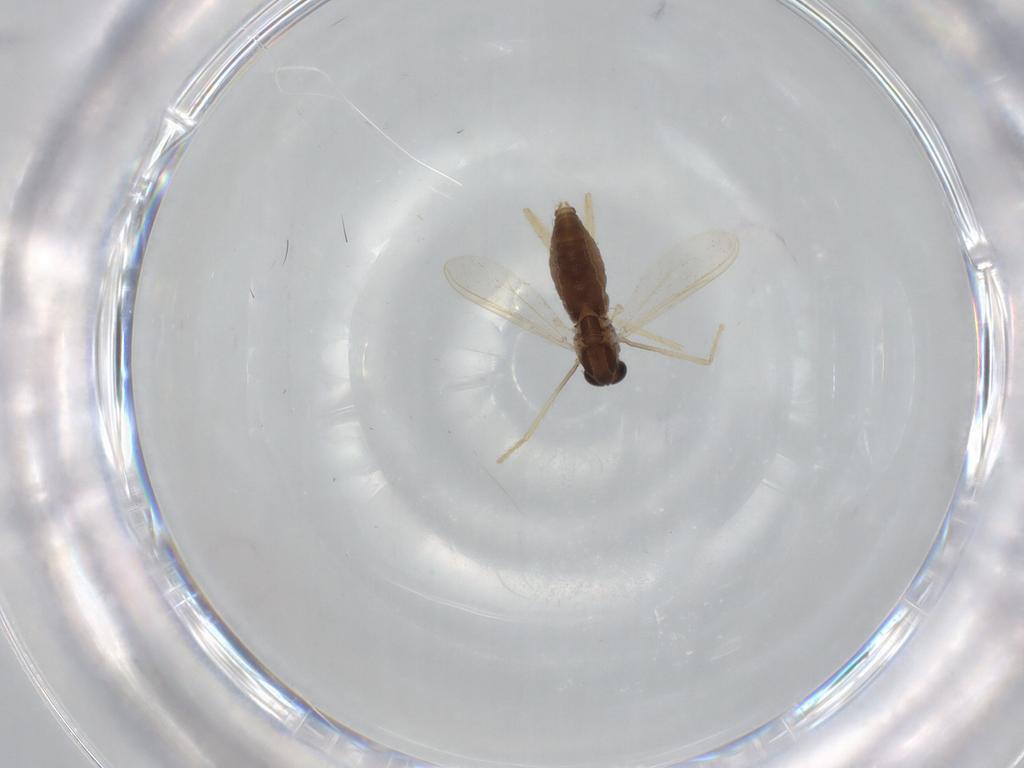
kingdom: Animalia
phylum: Arthropoda
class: Insecta
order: Diptera
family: Chironomidae
